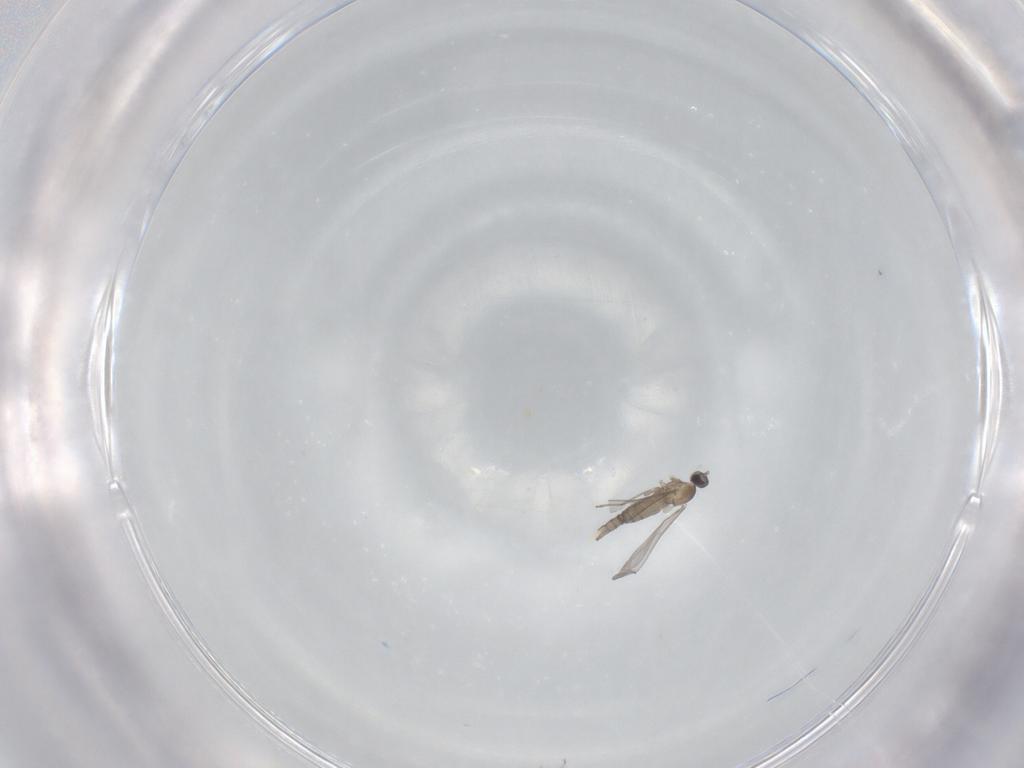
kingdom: Animalia
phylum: Arthropoda
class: Insecta
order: Diptera
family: Ceratopogonidae
